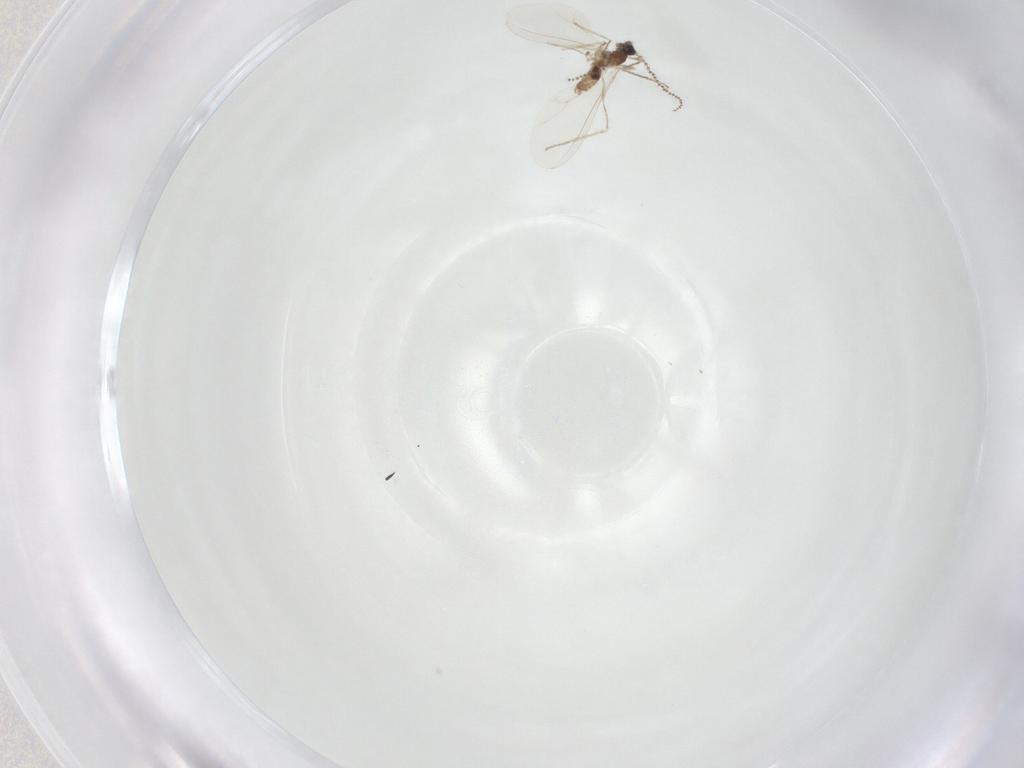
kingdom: Animalia
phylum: Arthropoda
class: Insecta
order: Diptera
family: Cecidomyiidae
